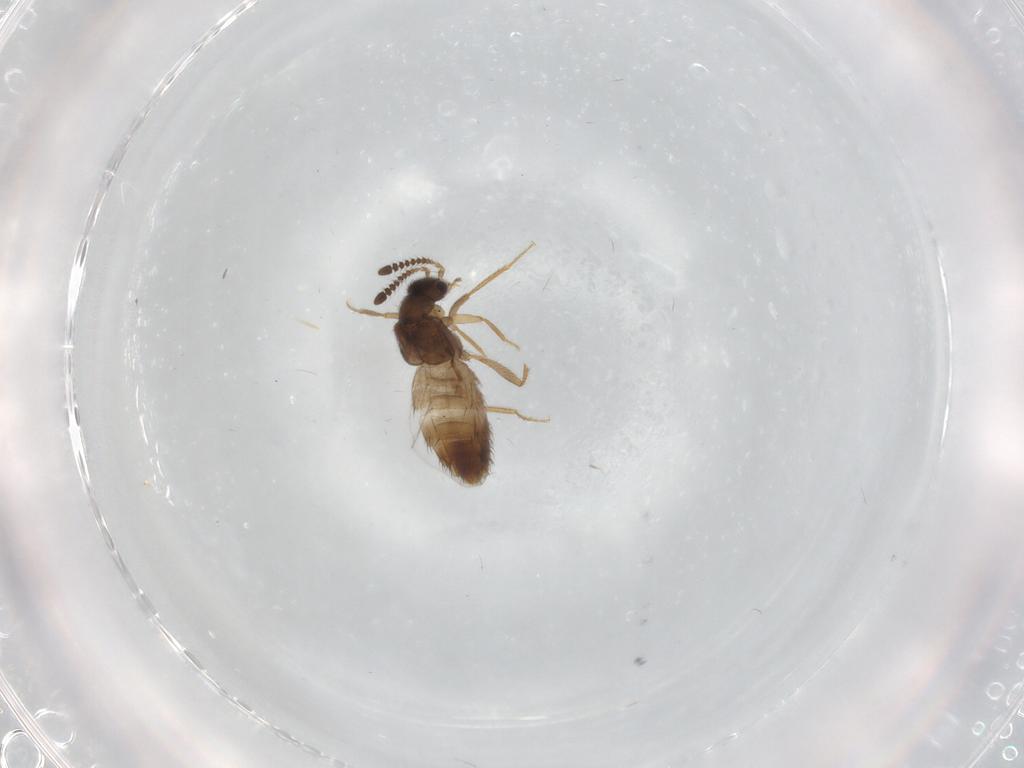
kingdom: Animalia
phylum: Arthropoda
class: Insecta
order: Coleoptera
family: Staphylinidae
